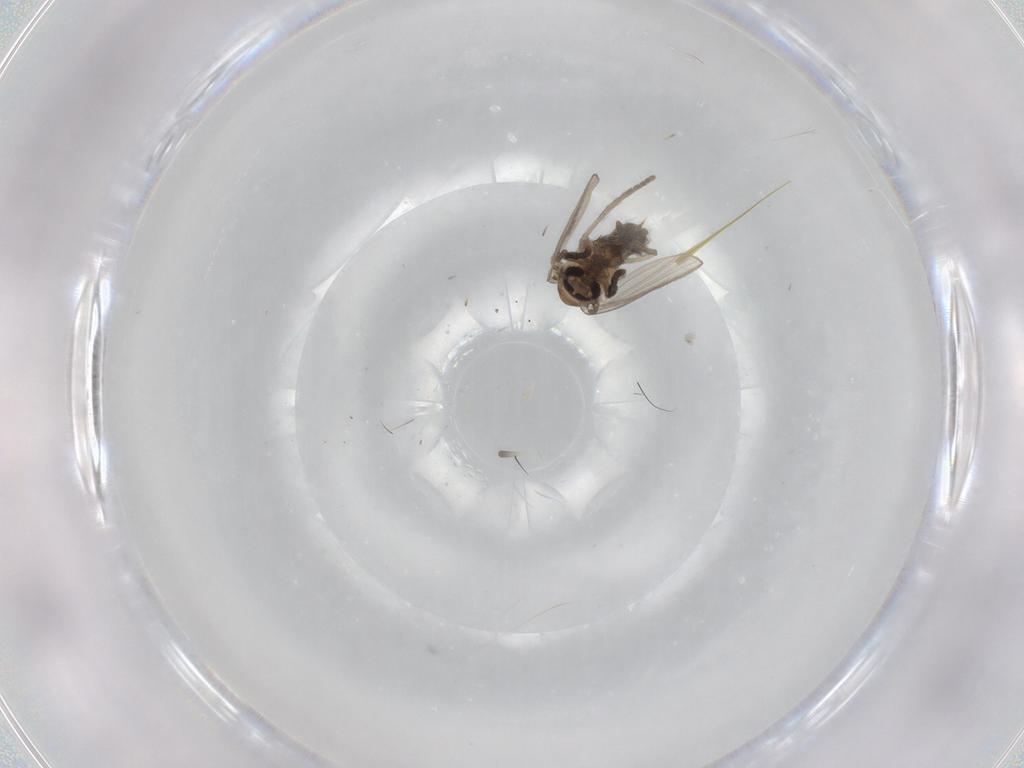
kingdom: Animalia
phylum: Arthropoda
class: Insecta
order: Diptera
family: Psychodidae
